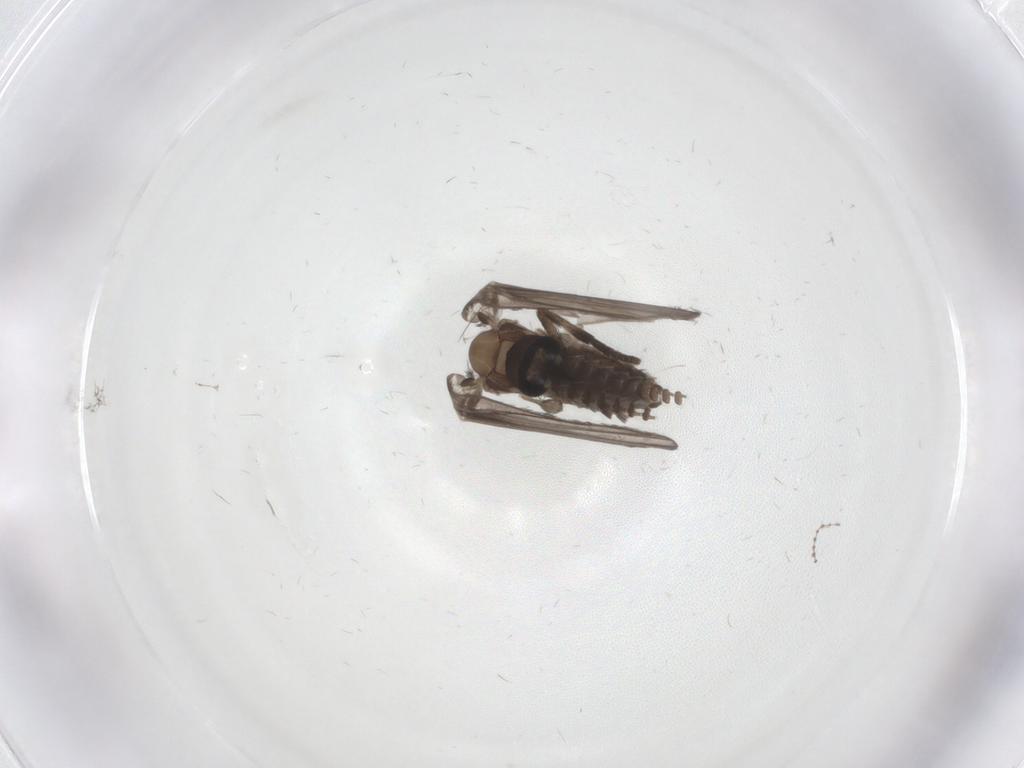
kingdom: Animalia
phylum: Arthropoda
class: Insecta
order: Diptera
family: Psychodidae
